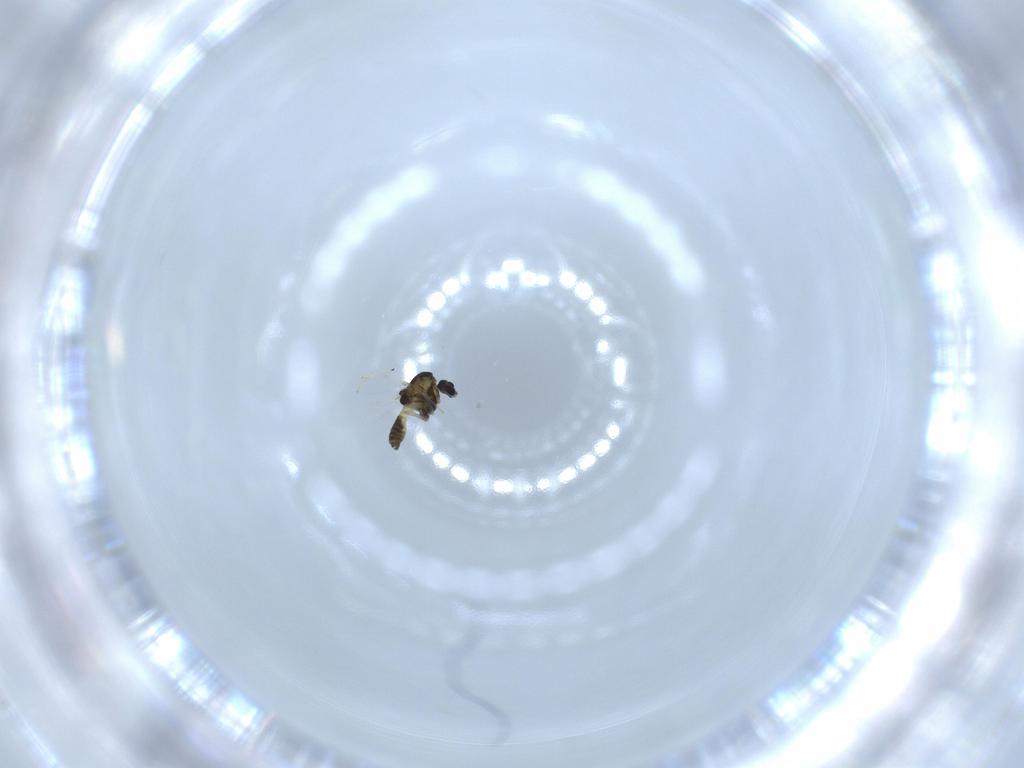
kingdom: Animalia
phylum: Arthropoda
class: Insecta
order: Diptera
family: Chironomidae
